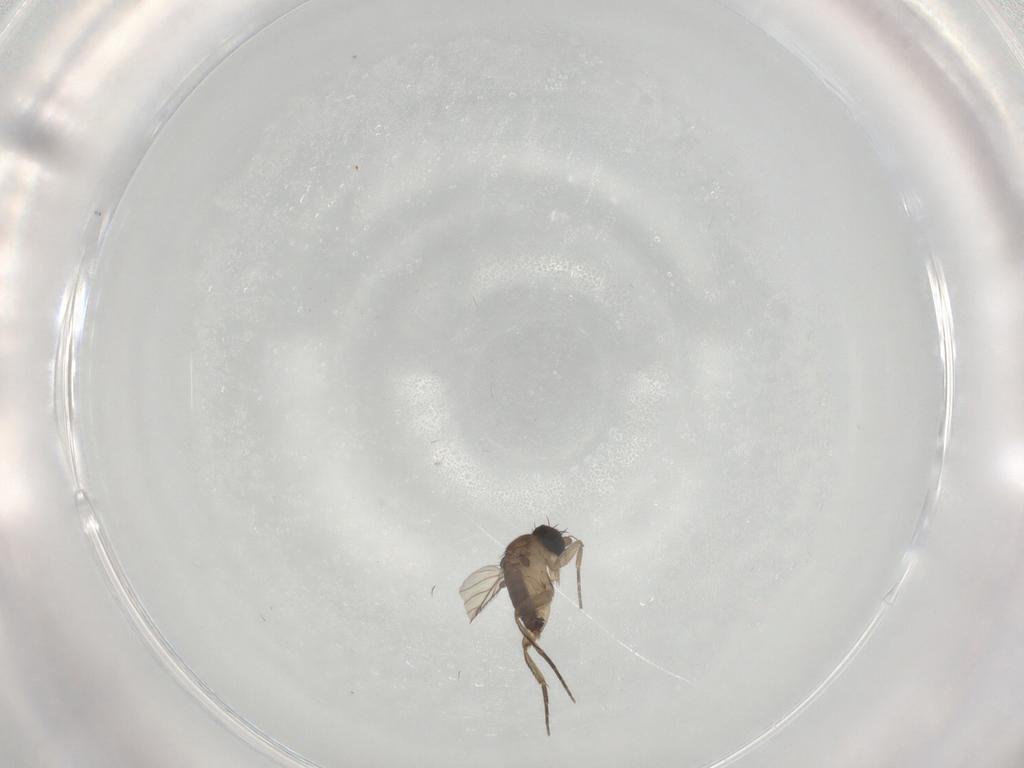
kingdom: Animalia
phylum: Arthropoda
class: Insecta
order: Diptera
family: Phoridae
